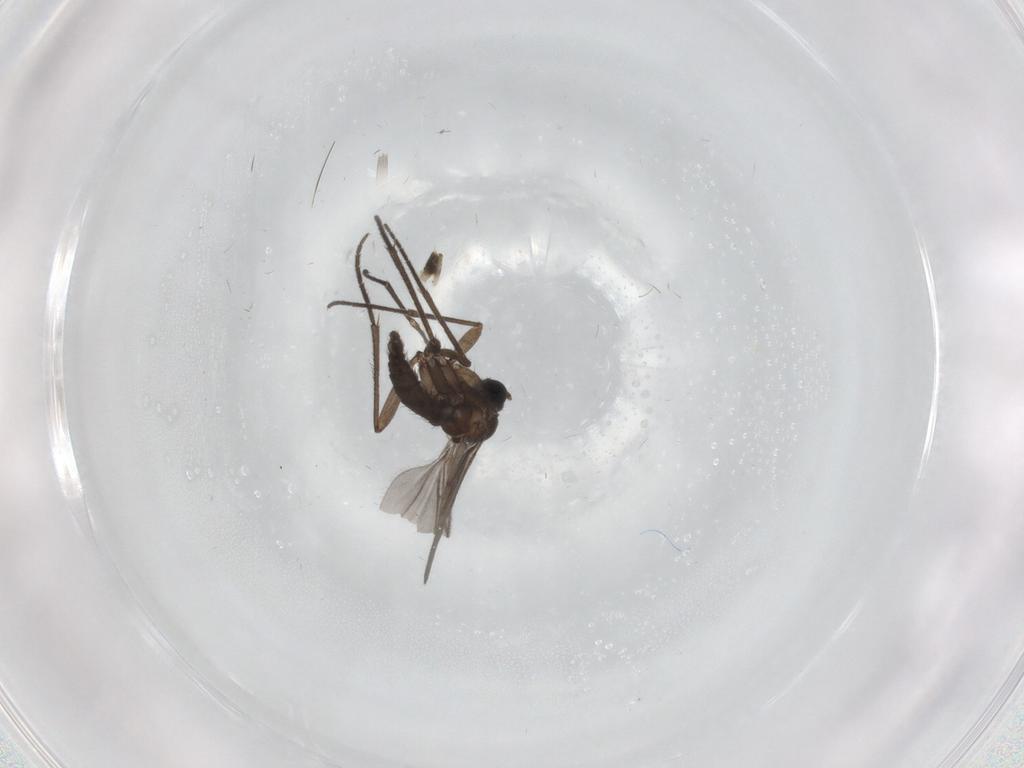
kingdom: Animalia
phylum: Arthropoda
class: Insecta
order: Diptera
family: Sciaridae
